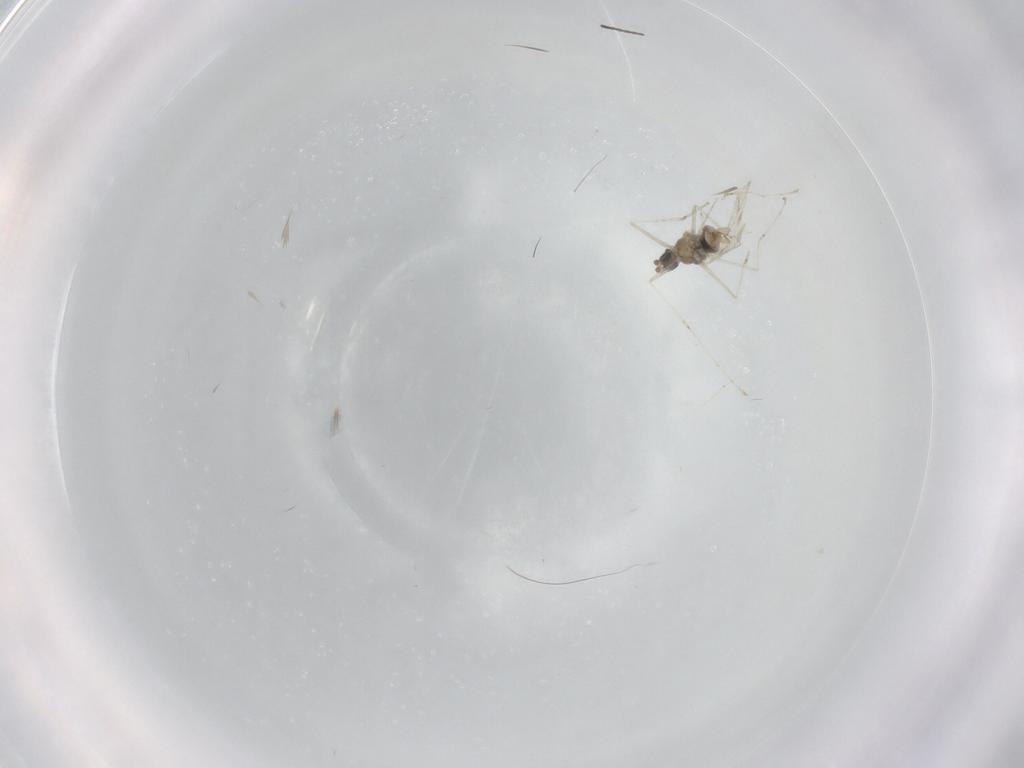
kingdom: Animalia
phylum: Arthropoda
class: Insecta
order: Diptera
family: Cecidomyiidae
